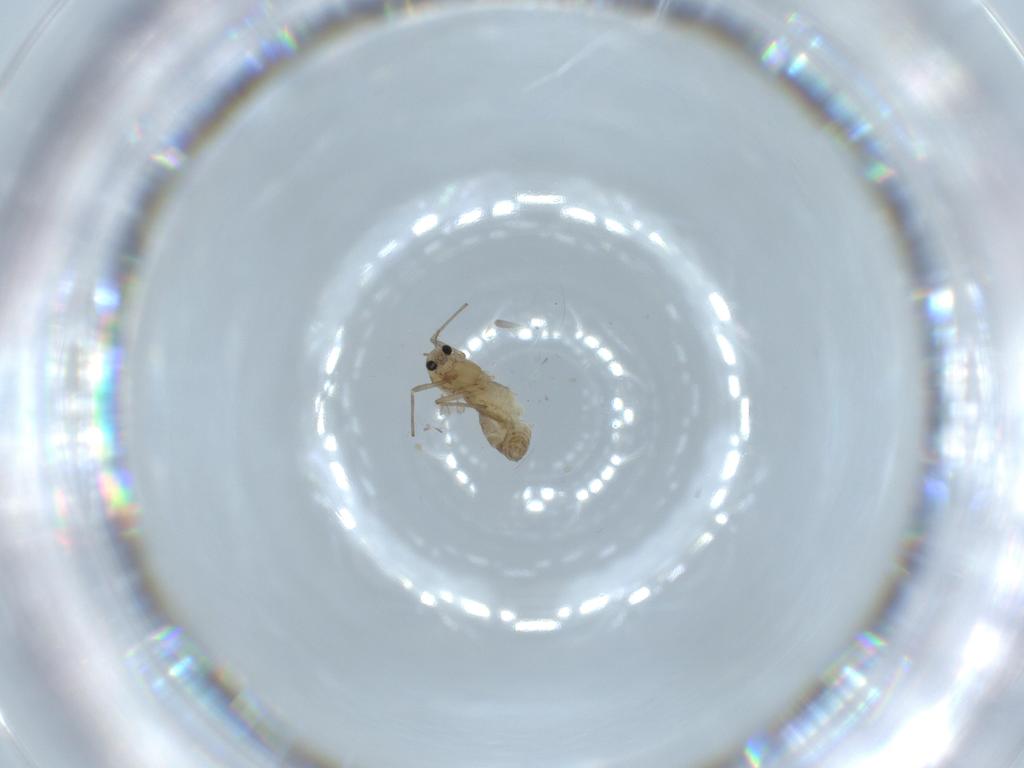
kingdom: Animalia
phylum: Arthropoda
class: Insecta
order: Diptera
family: Chironomidae
